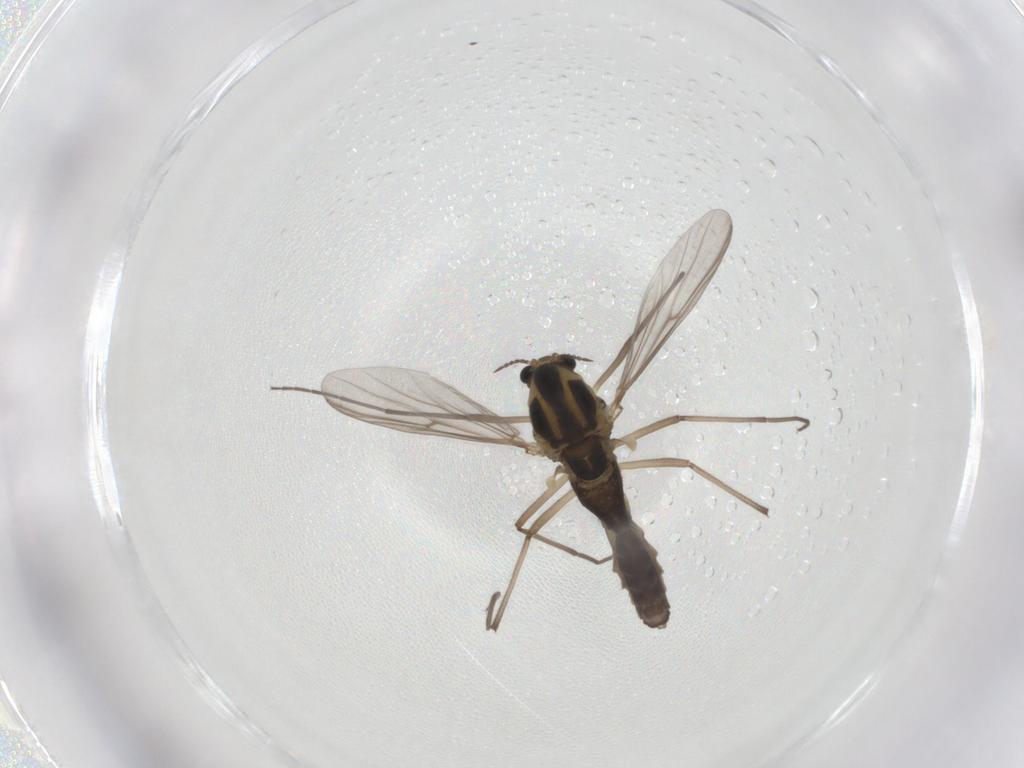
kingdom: Animalia
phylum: Arthropoda
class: Insecta
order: Diptera
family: Chironomidae
